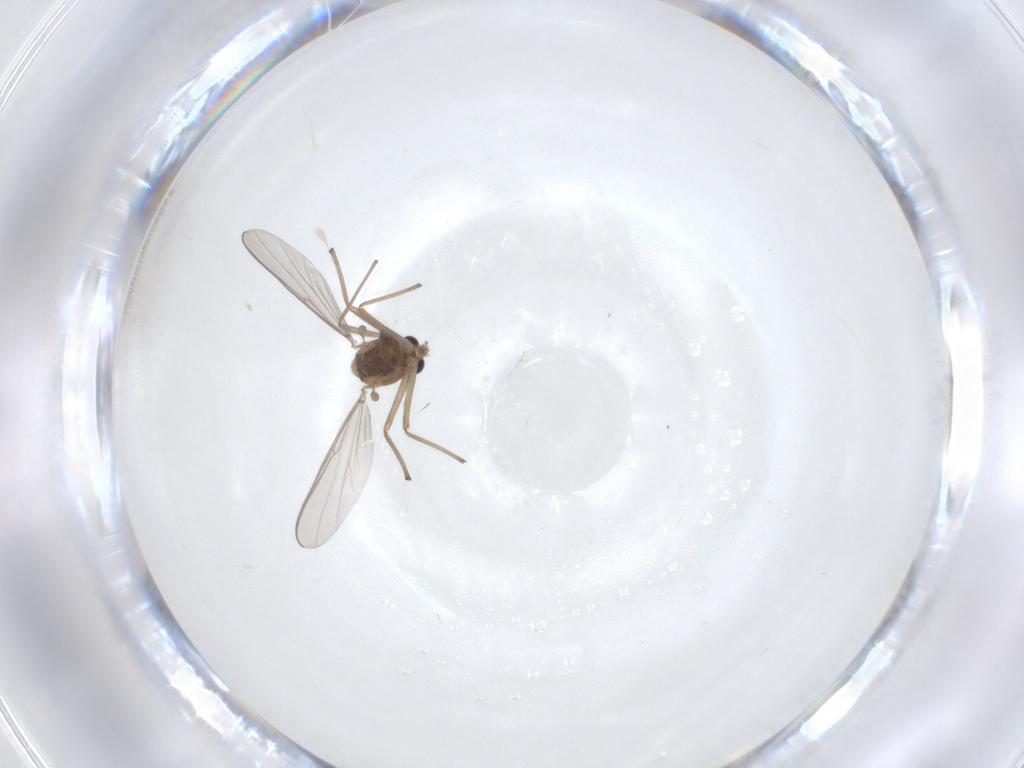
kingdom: Animalia
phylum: Arthropoda
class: Insecta
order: Diptera
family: Chironomidae
